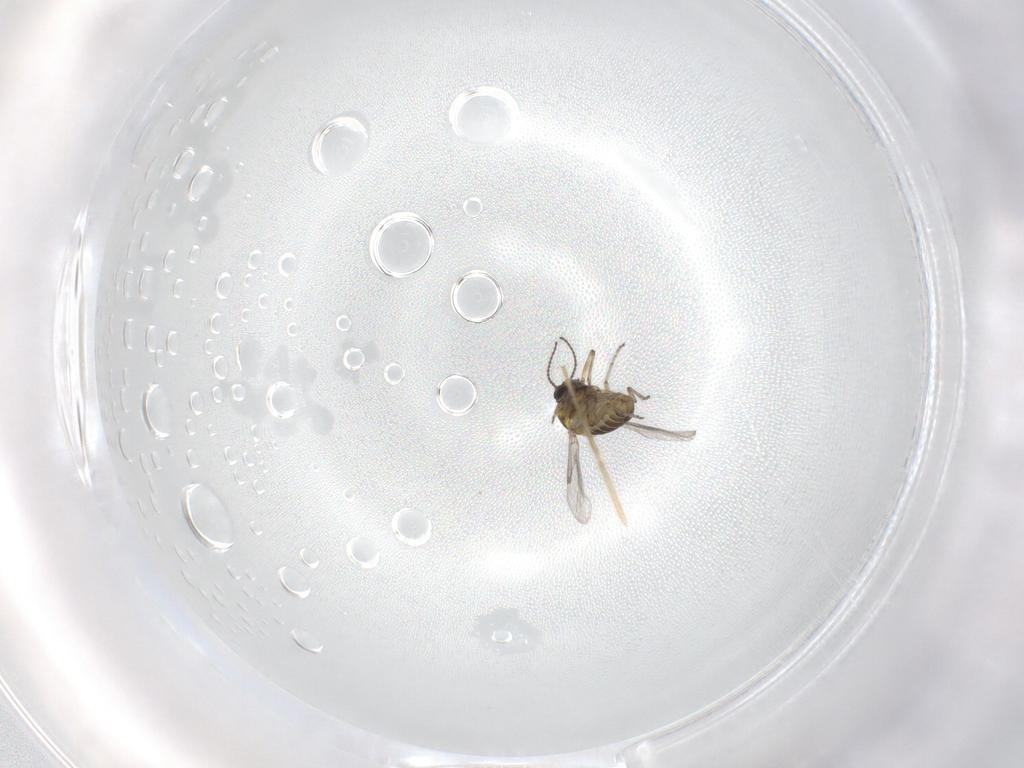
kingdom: Animalia
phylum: Arthropoda
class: Insecta
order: Diptera
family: Ceratopogonidae
